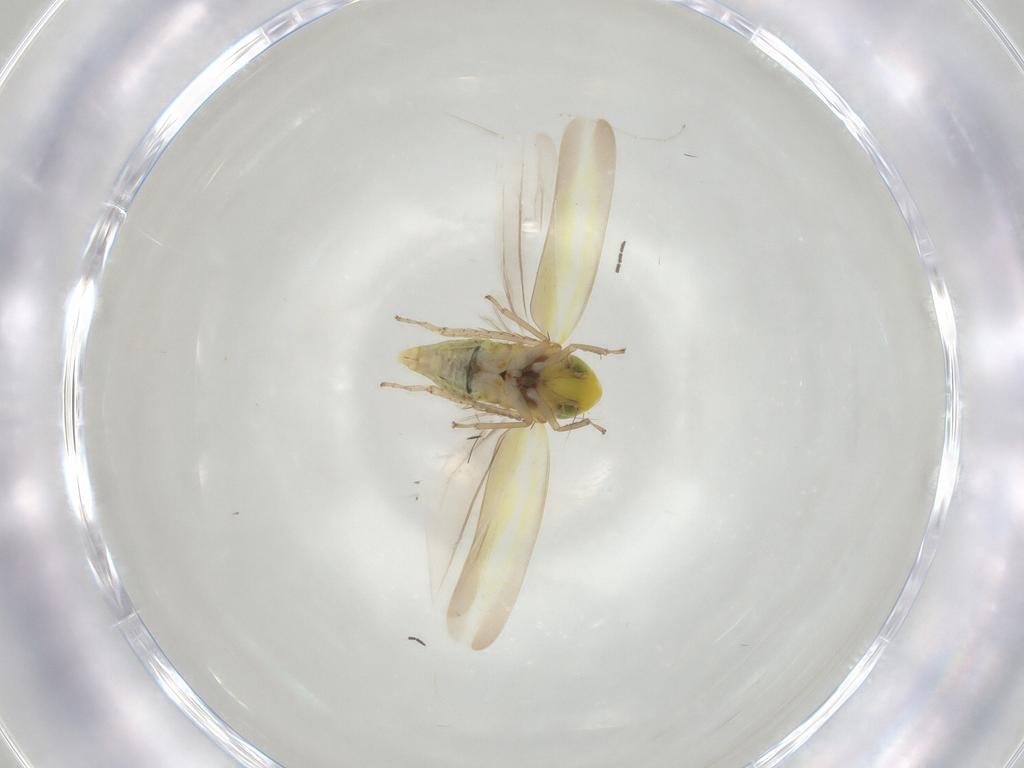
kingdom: Animalia
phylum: Arthropoda
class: Insecta
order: Hemiptera
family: Cicadellidae
